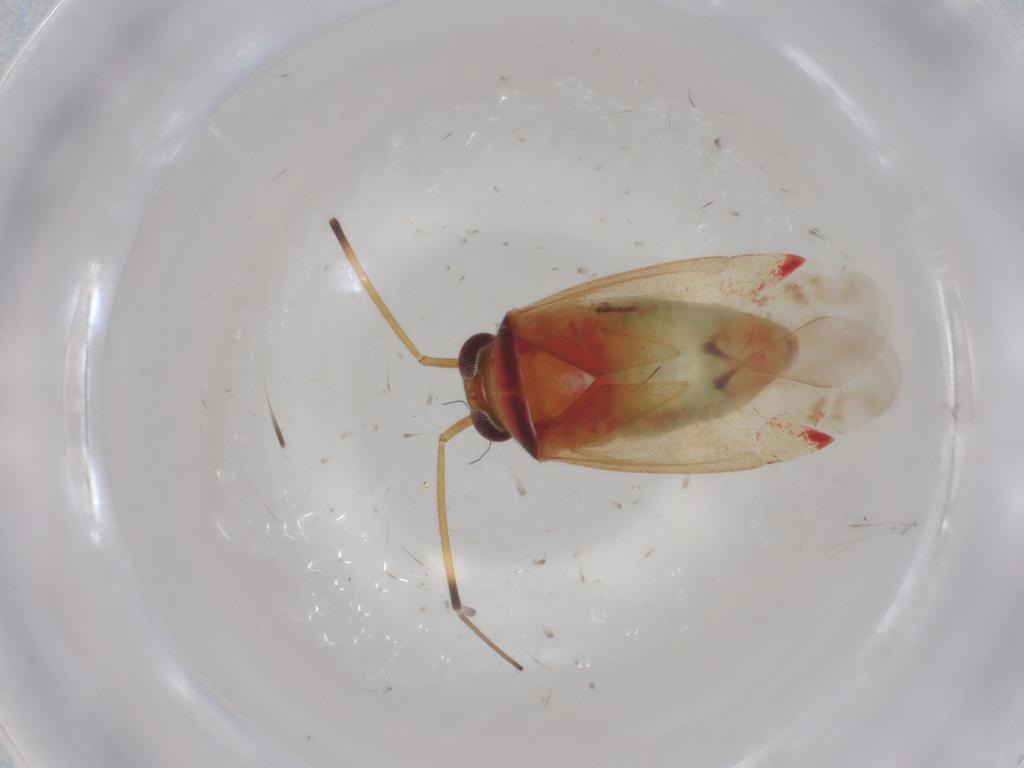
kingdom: Animalia
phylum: Arthropoda
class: Insecta
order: Hemiptera
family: Miridae
